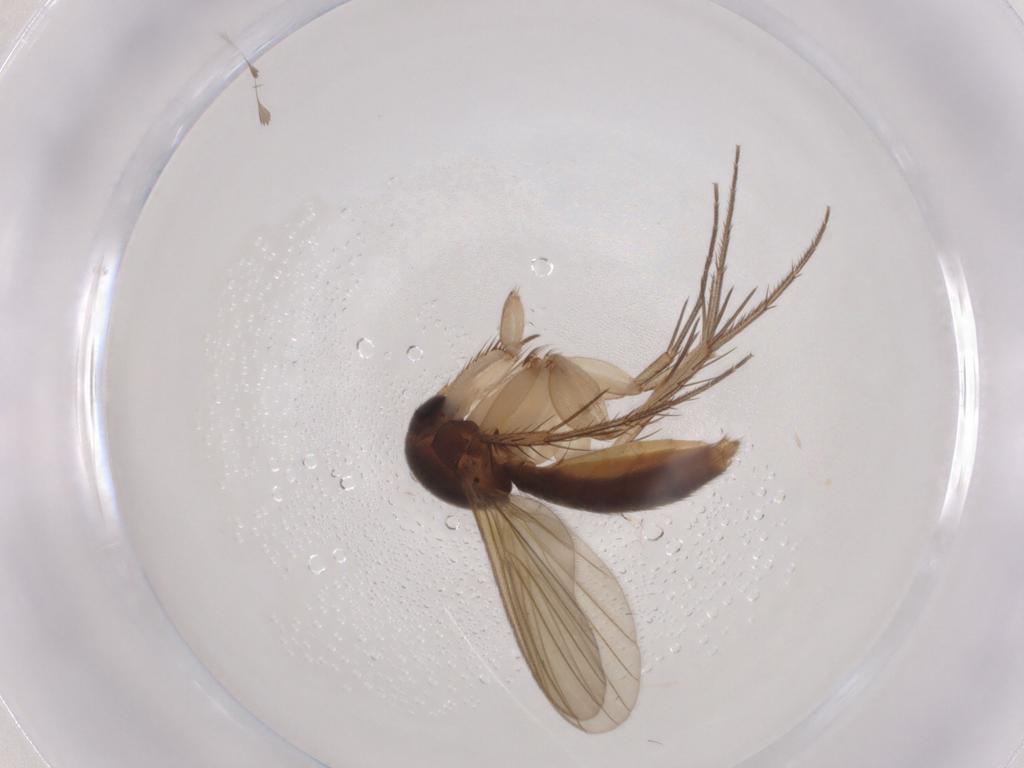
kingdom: Animalia
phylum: Arthropoda
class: Insecta
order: Diptera
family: Mycetophilidae
